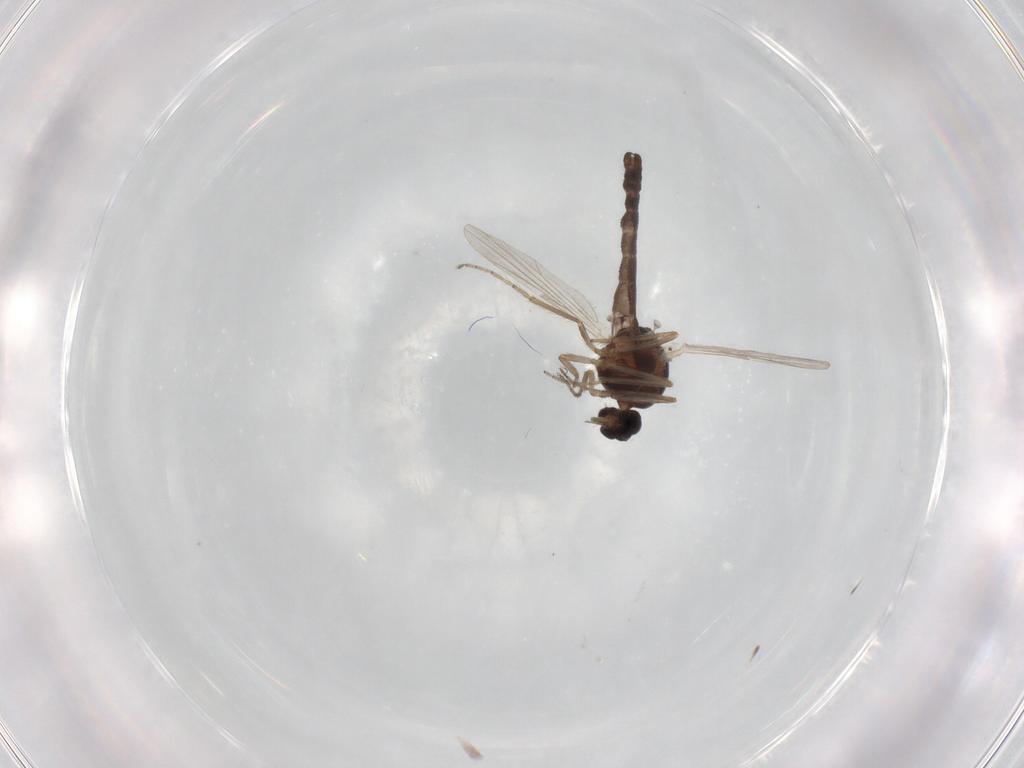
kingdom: Animalia
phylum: Arthropoda
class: Insecta
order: Diptera
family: Ceratopogonidae
